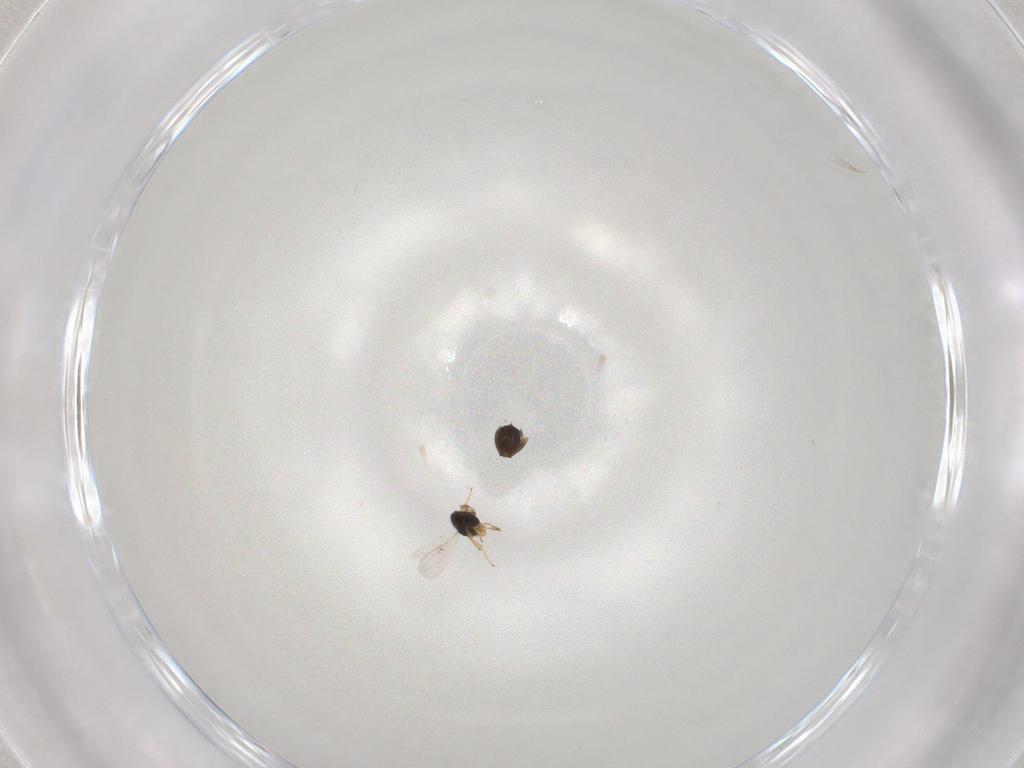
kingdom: Animalia
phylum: Arthropoda
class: Insecta
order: Hymenoptera
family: Scelionidae
